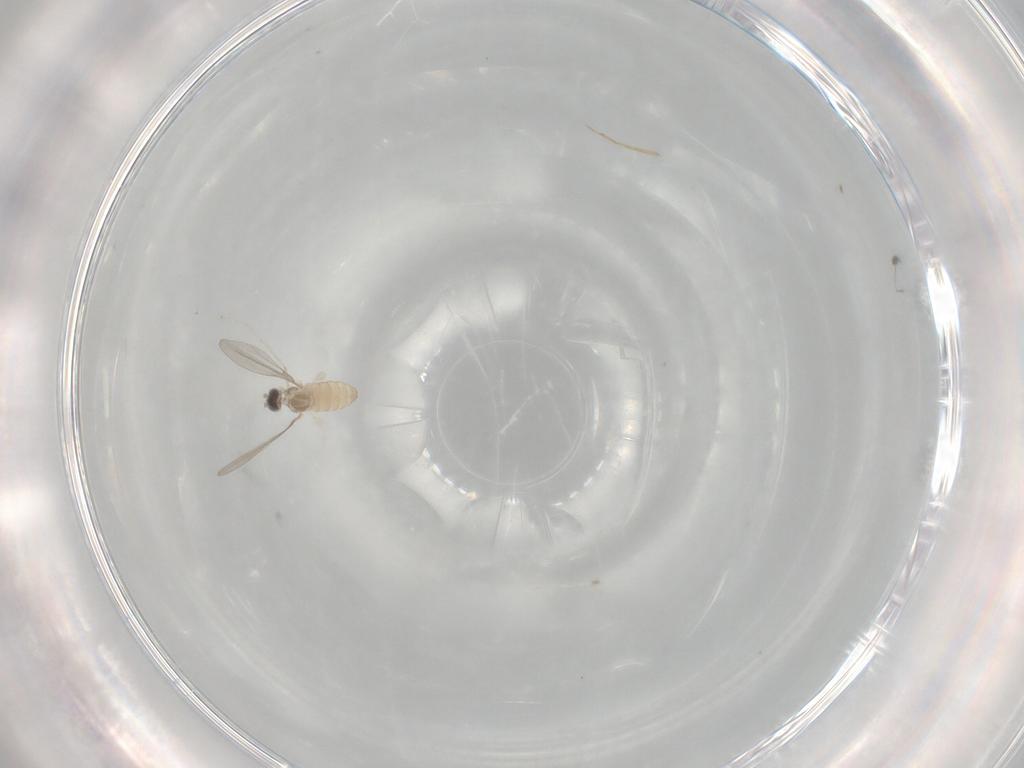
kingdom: Animalia
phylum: Arthropoda
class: Insecta
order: Diptera
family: Cecidomyiidae
